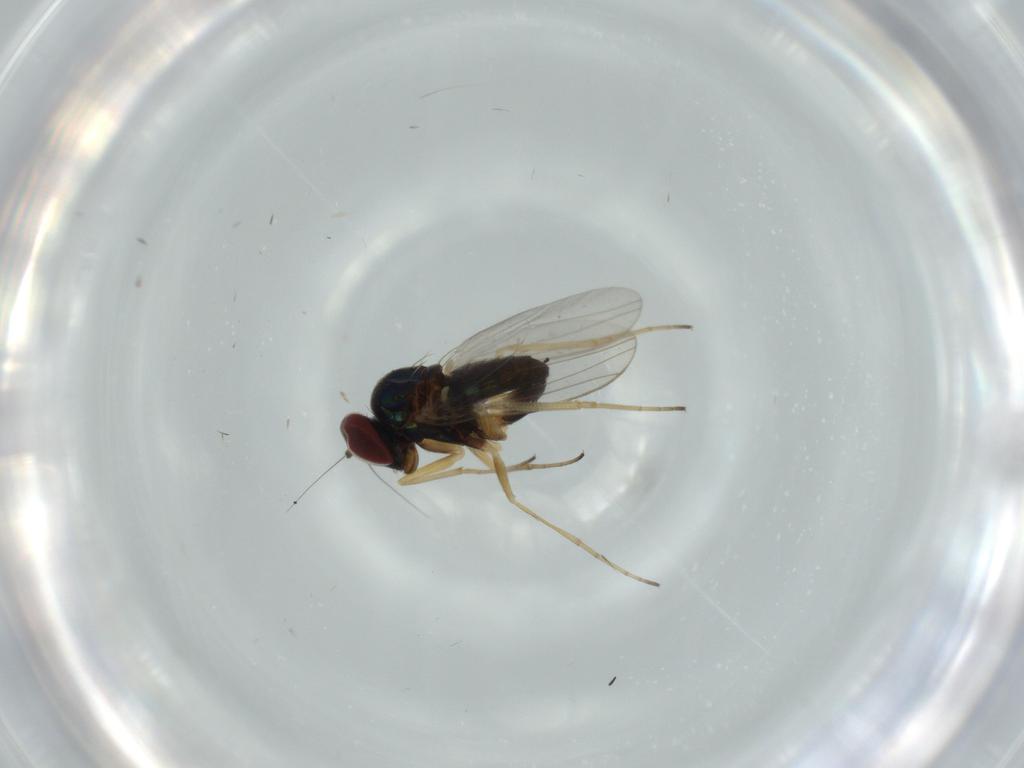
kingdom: Animalia
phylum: Arthropoda
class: Insecta
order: Diptera
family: Dolichopodidae
